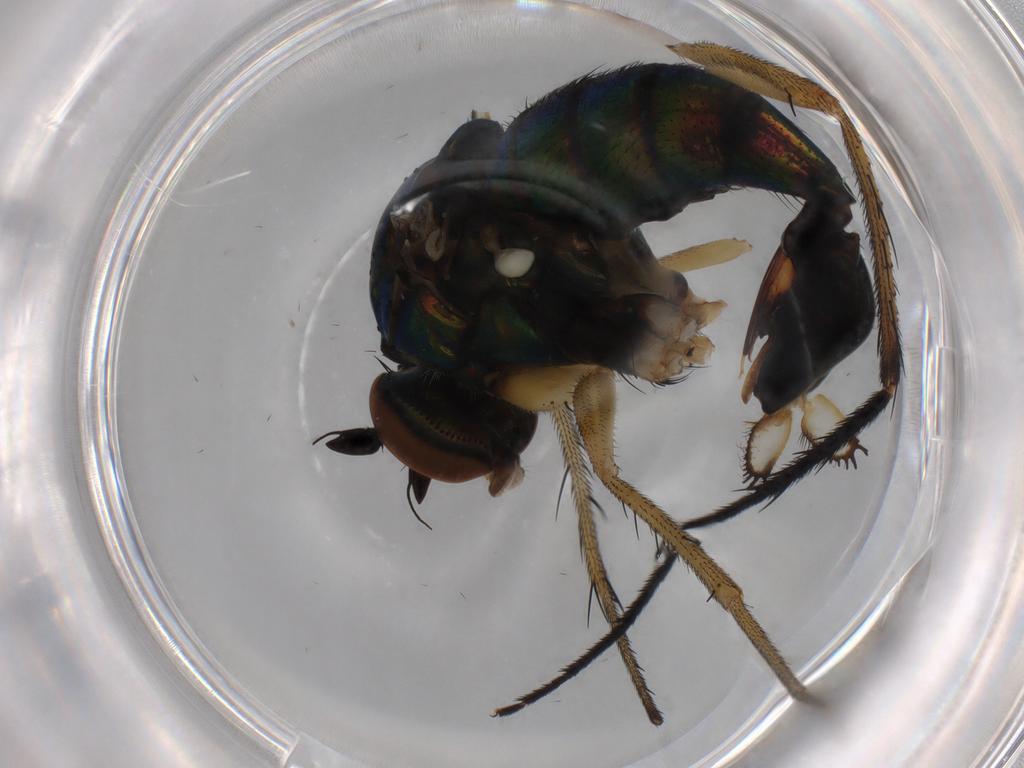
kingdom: Animalia
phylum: Arthropoda
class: Insecta
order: Diptera
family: Dolichopodidae
